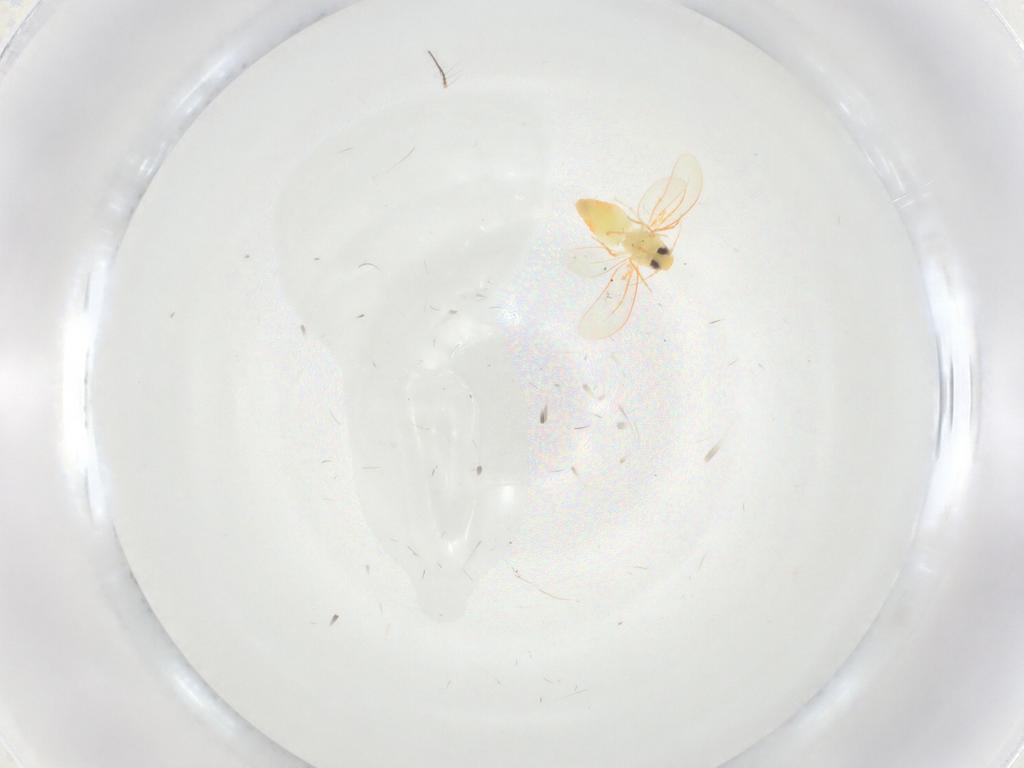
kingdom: Animalia
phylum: Arthropoda
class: Insecta
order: Hemiptera
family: Aleyrodidae
